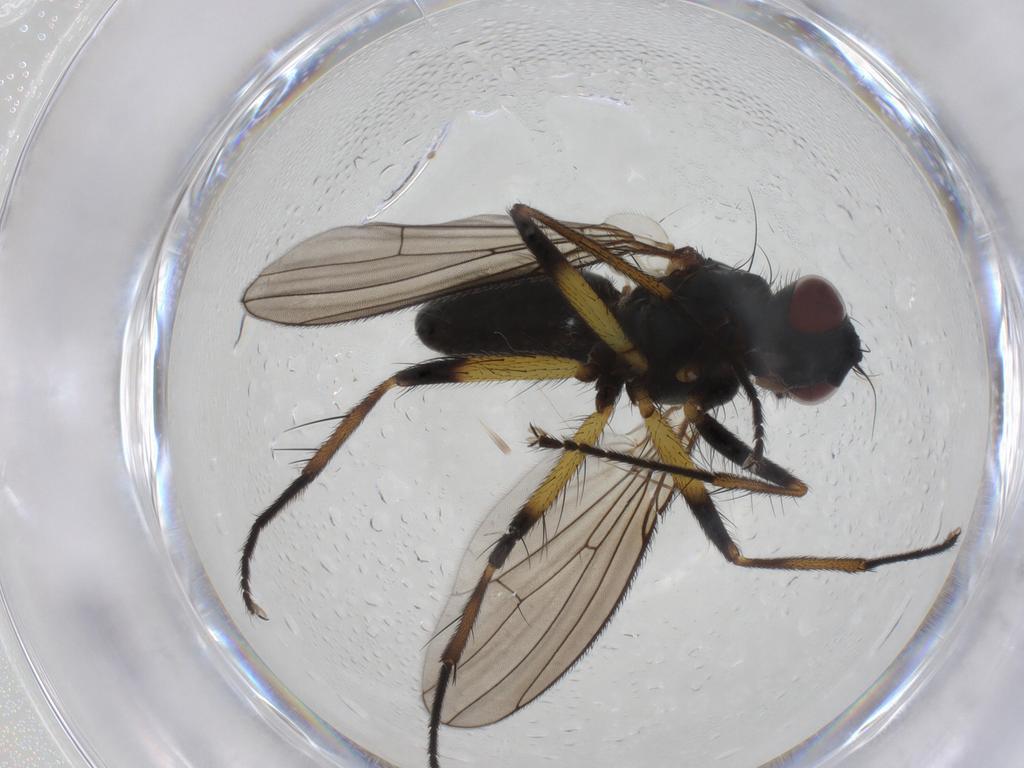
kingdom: Animalia
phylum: Arthropoda
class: Insecta
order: Diptera
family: Muscidae
